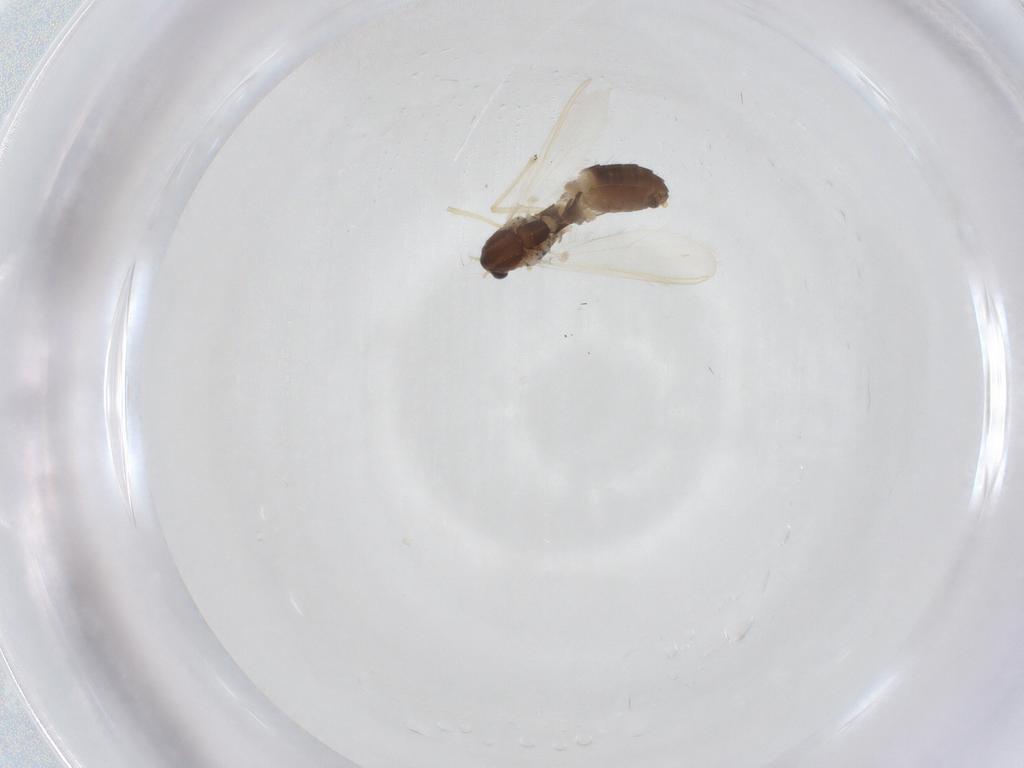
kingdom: Animalia
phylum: Arthropoda
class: Insecta
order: Diptera
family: Chironomidae
